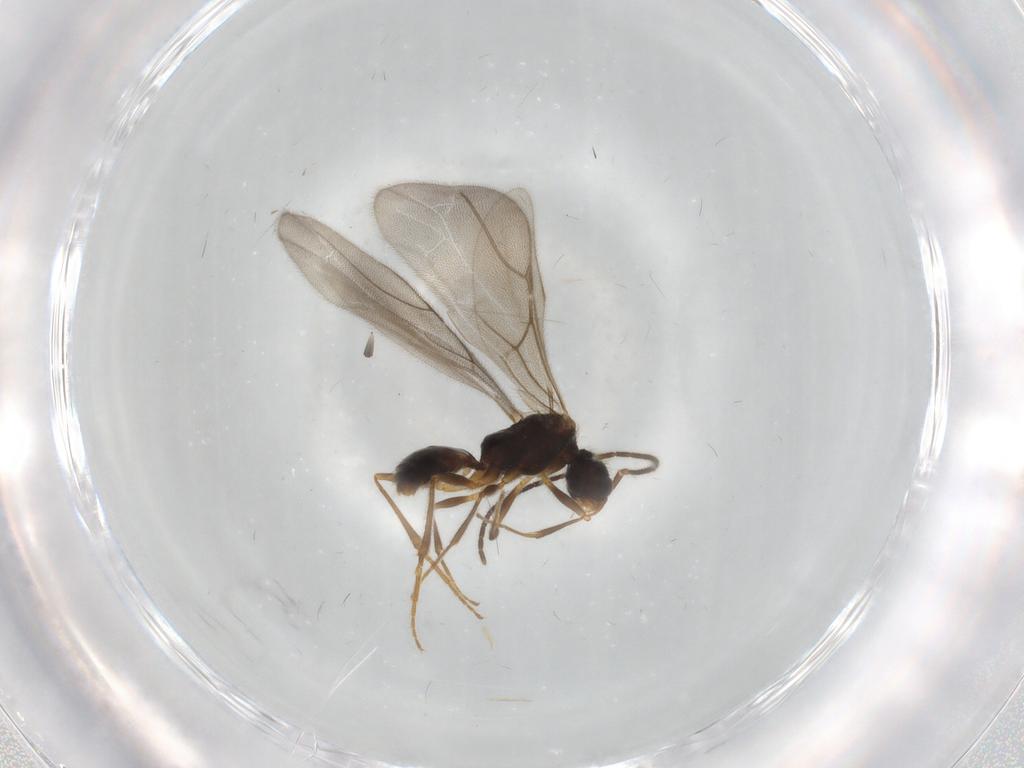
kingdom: Animalia
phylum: Arthropoda
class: Insecta
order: Hymenoptera
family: Bethylidae
